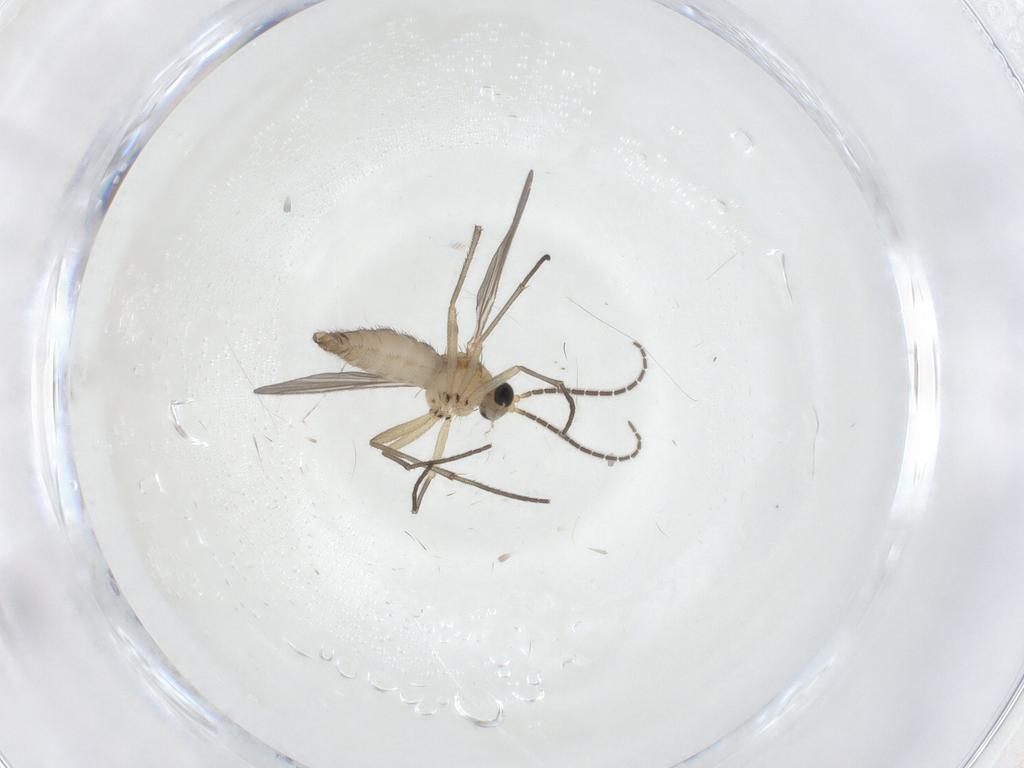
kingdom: Animalia
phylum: Arthropoda
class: Insecta
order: Diptera
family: Sciaridae
